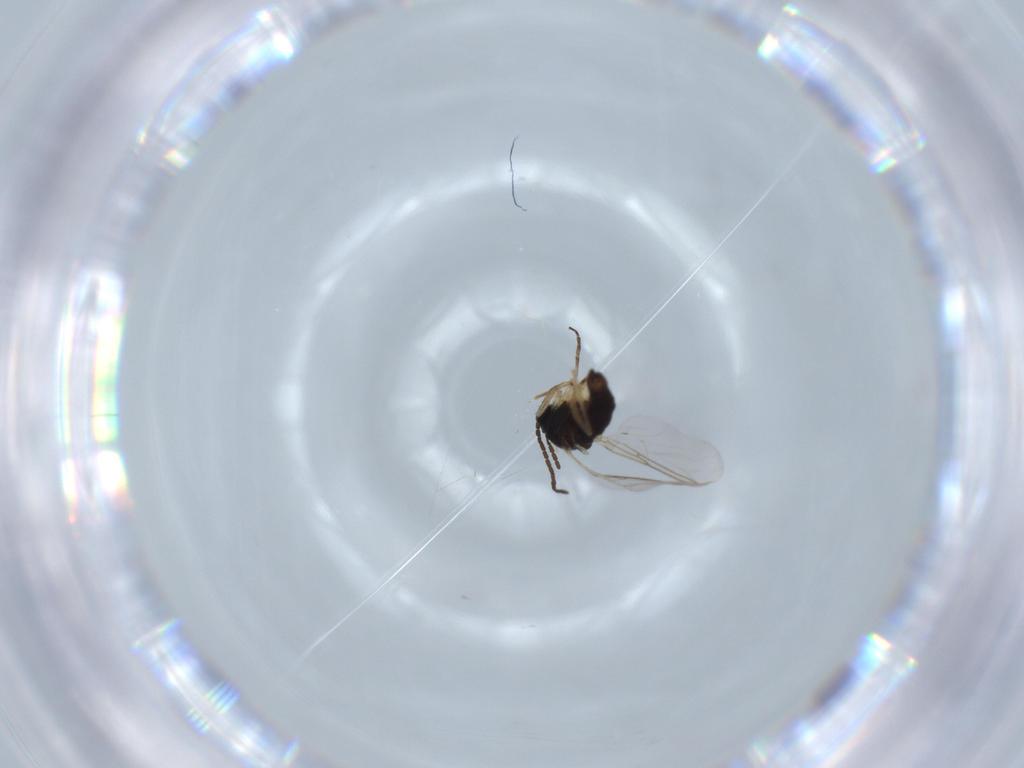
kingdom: Animalia
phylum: Arthropoda
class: Insecta
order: Diptera
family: Sciaridae
